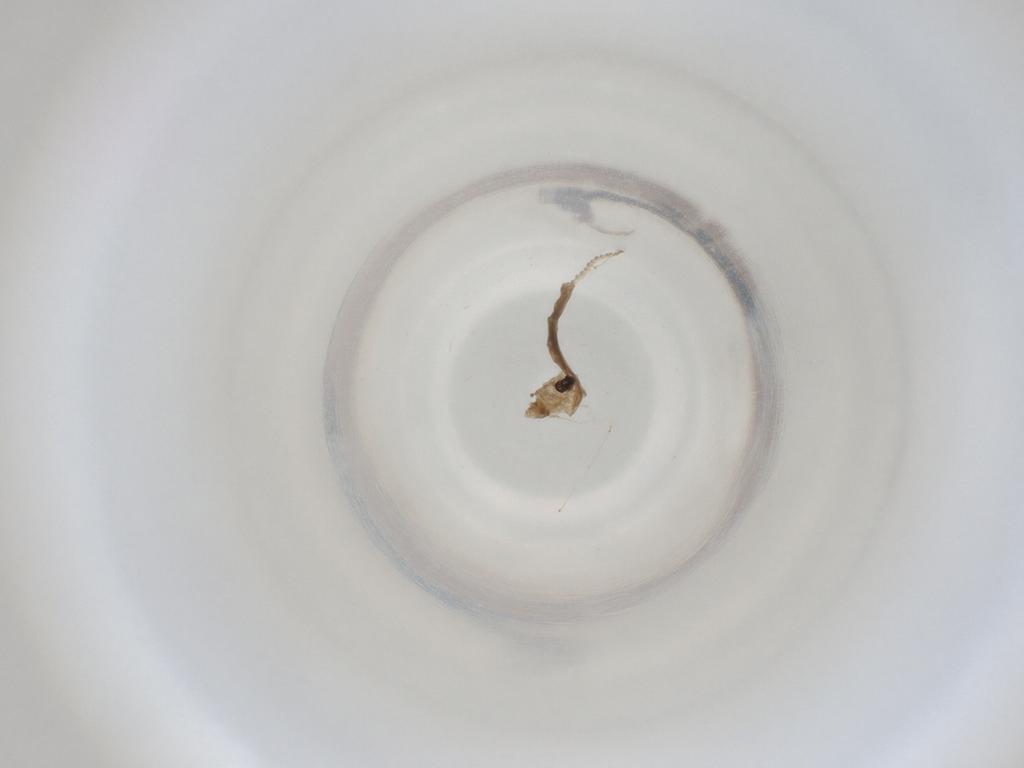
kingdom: Animalia
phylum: Arthropoda
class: Insecta
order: Diptera
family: Cecidomyiidae
